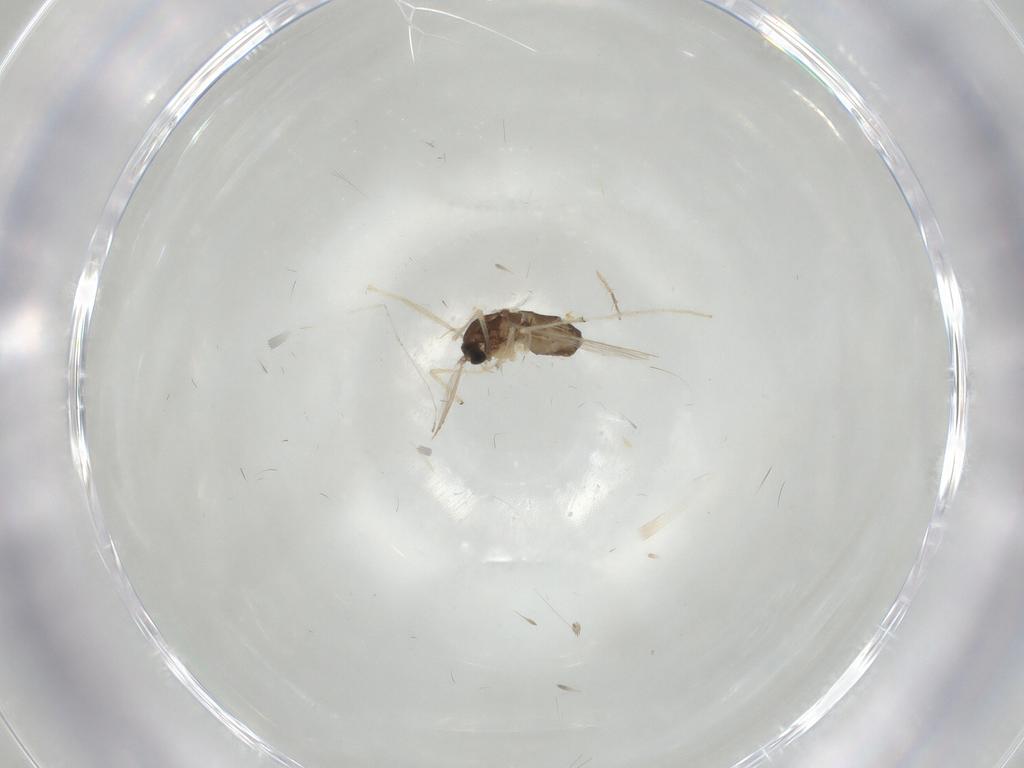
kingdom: Animalia
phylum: Arthropoda
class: Insecta
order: Diptera
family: Chironomidae
